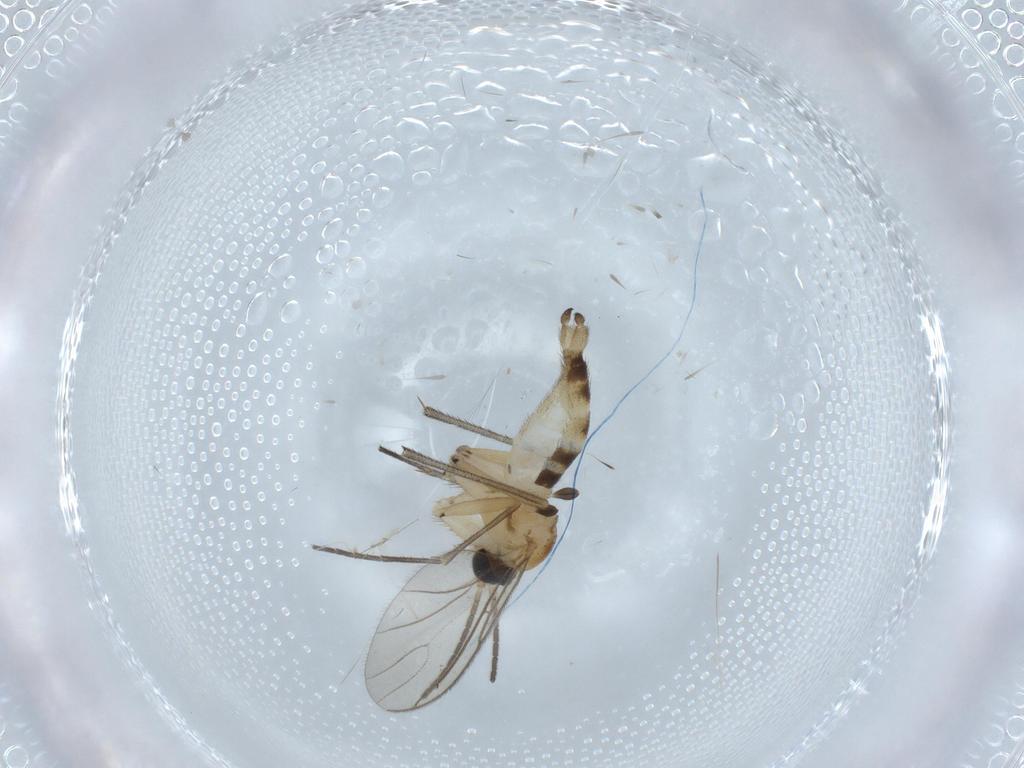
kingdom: Animalia
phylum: Arthropoda
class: Insecta
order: Diptera
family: Sciaridae
